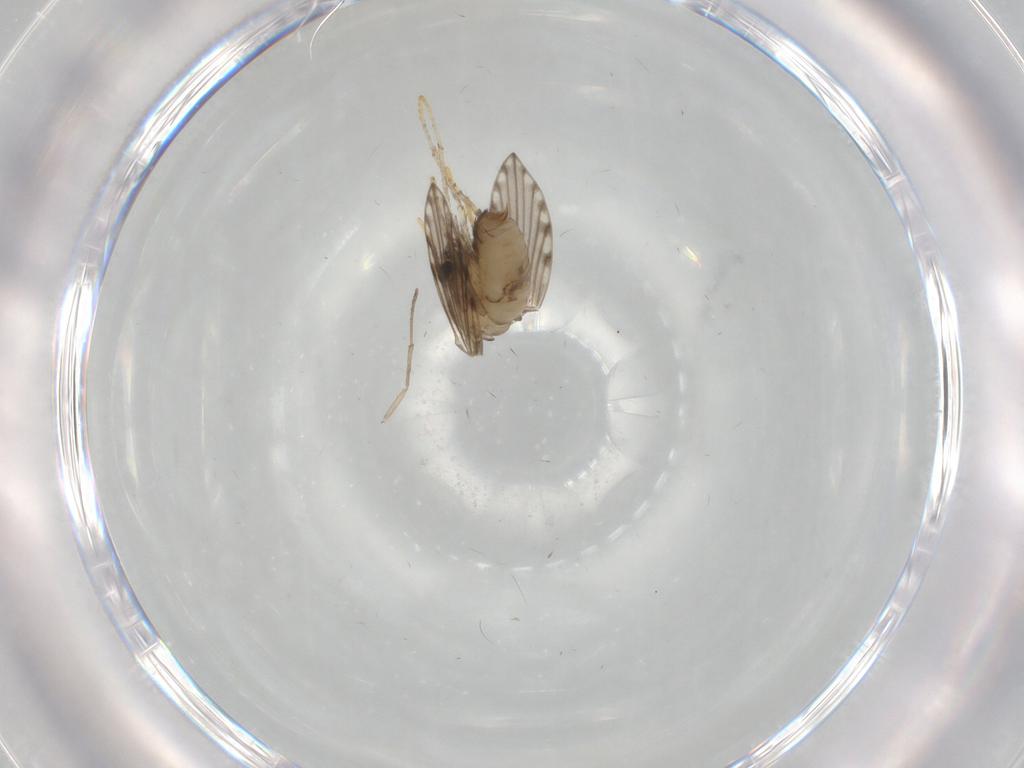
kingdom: Animalia
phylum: Arthropoda
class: Insecta
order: Diptera
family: Psychodidae
